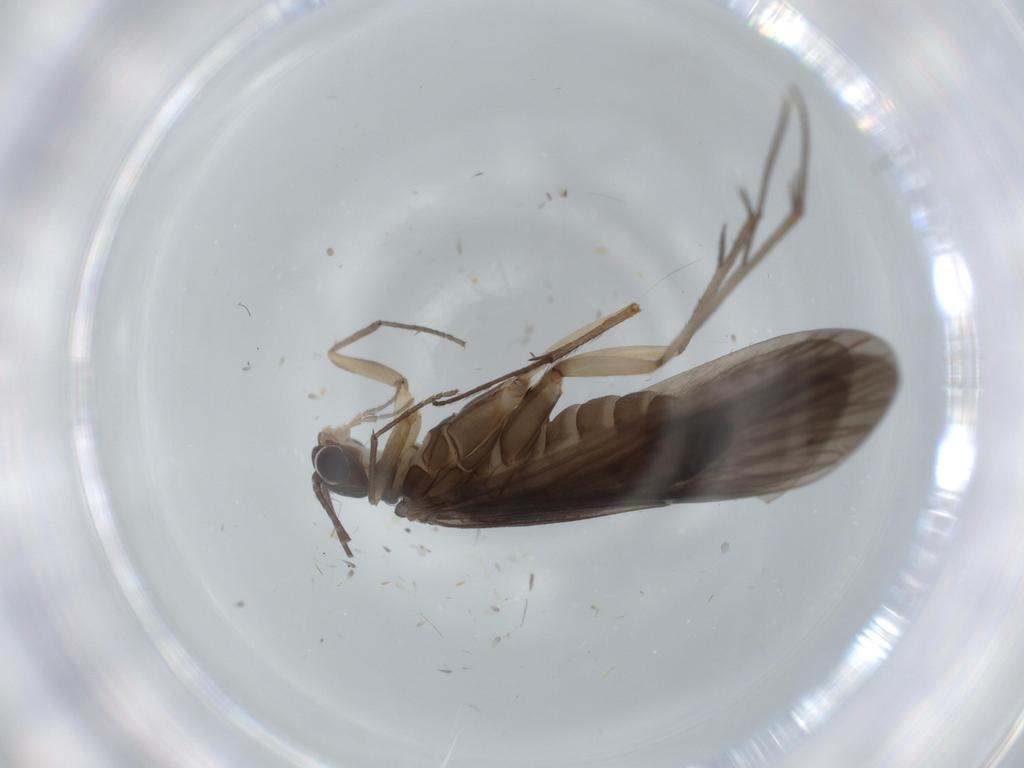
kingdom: Animalia
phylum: Arthropoda
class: Insecta
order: Trichoptera
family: Philopotamidae
